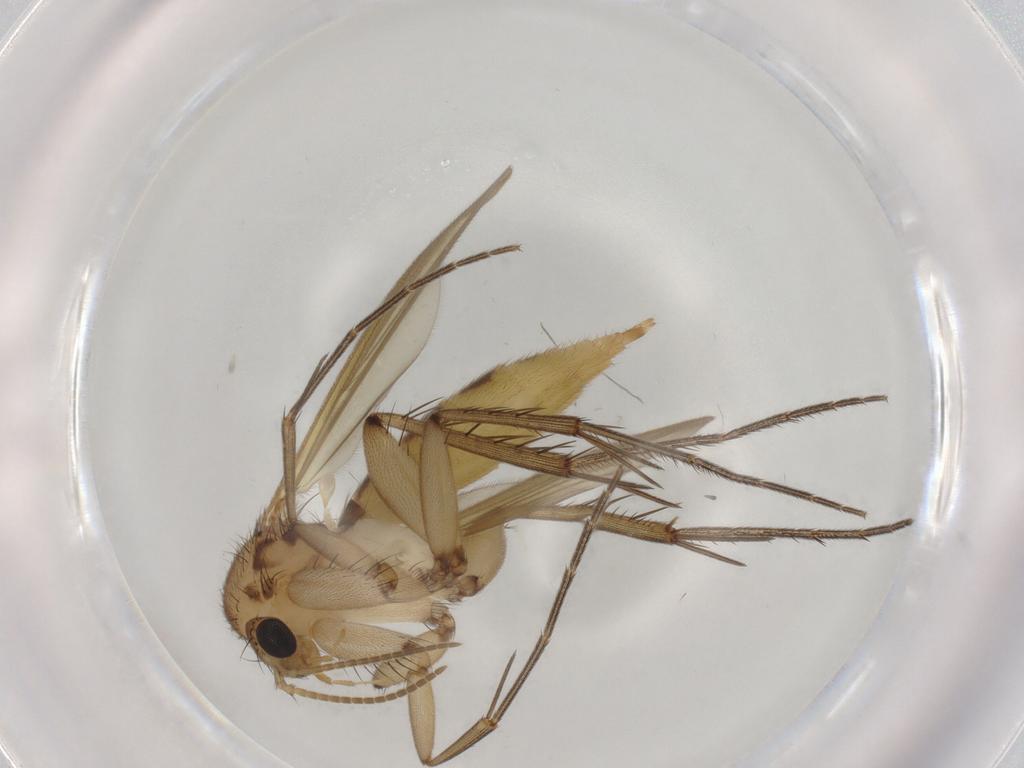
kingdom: Animalia
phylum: Arthropoda
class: Insecta
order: Diptera
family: Mycetophilidae
